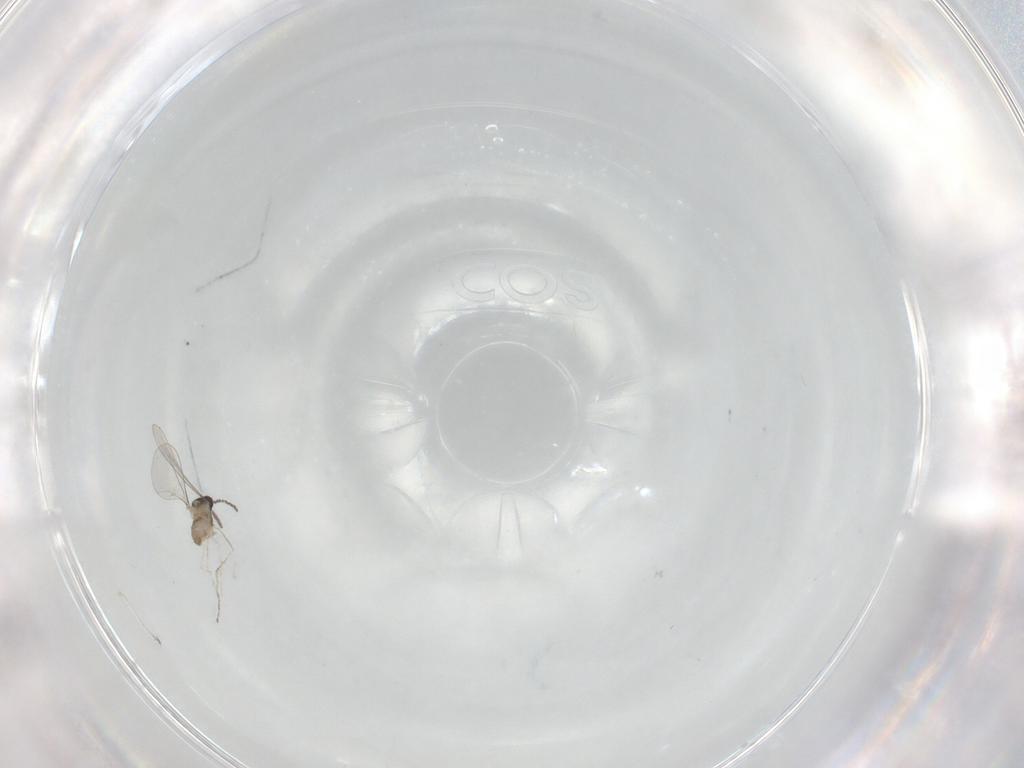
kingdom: Animalia
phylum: Arthropoda
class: Insecta
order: Diptera
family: Cecidomyiidae
